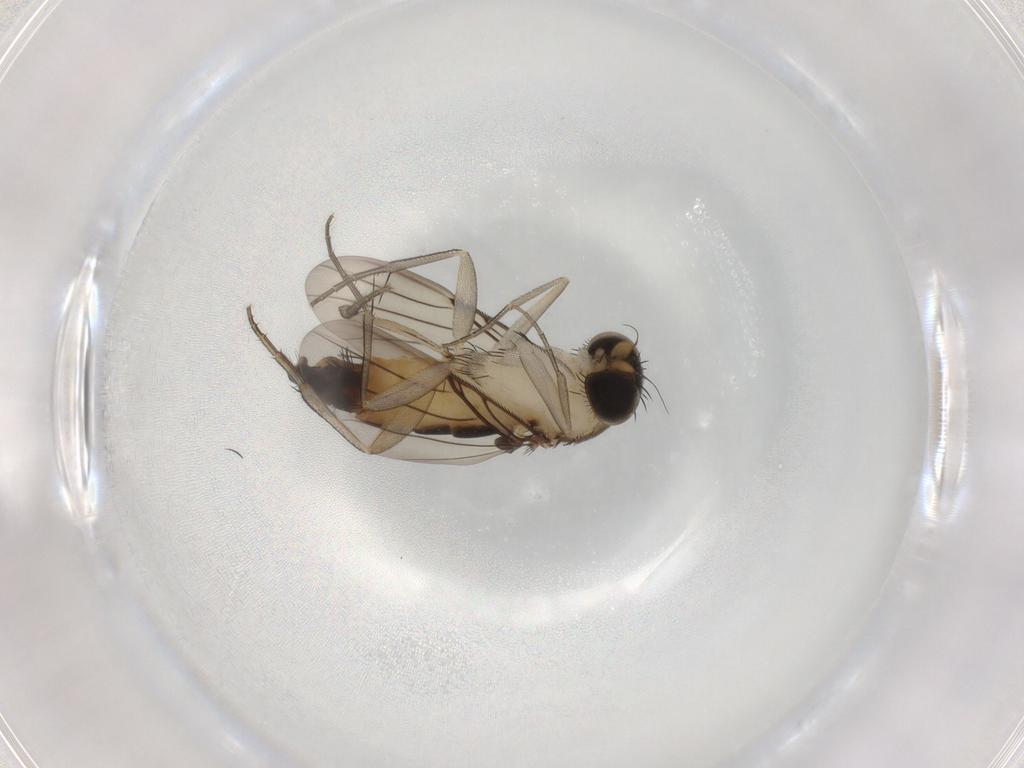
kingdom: Animalia
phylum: Arthropoda
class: Insecta
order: Diptera
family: Phoridae
